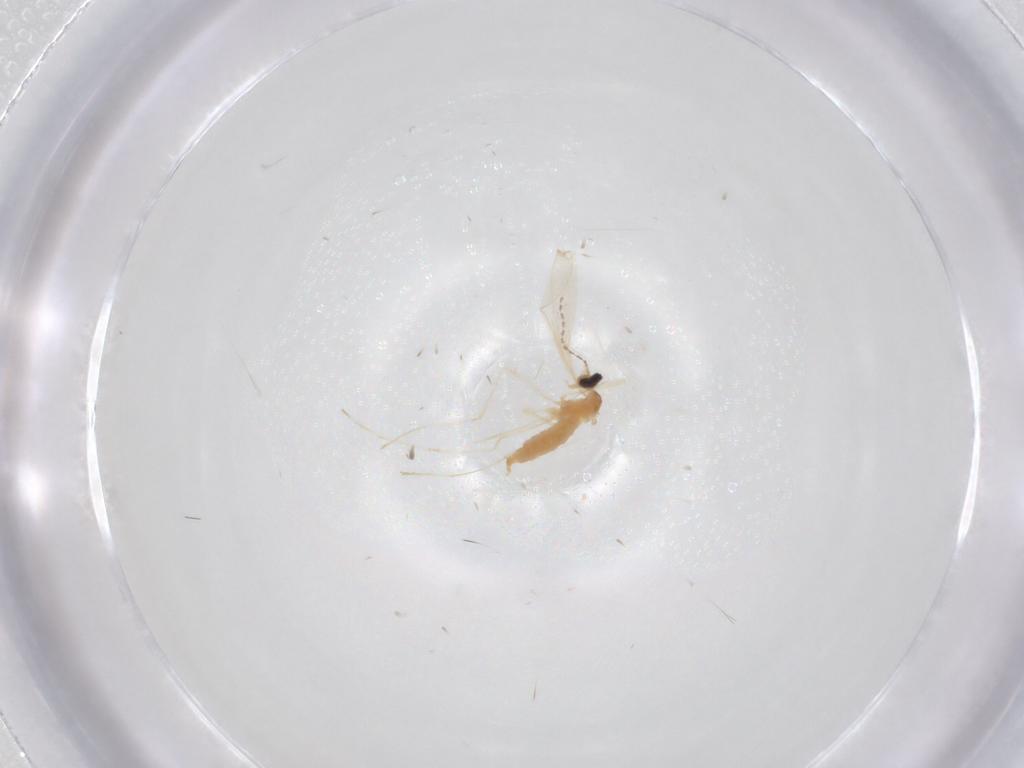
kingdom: Animalia
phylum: Arthropoda
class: Insecta
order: Diptera
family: Cecidomyiidae
